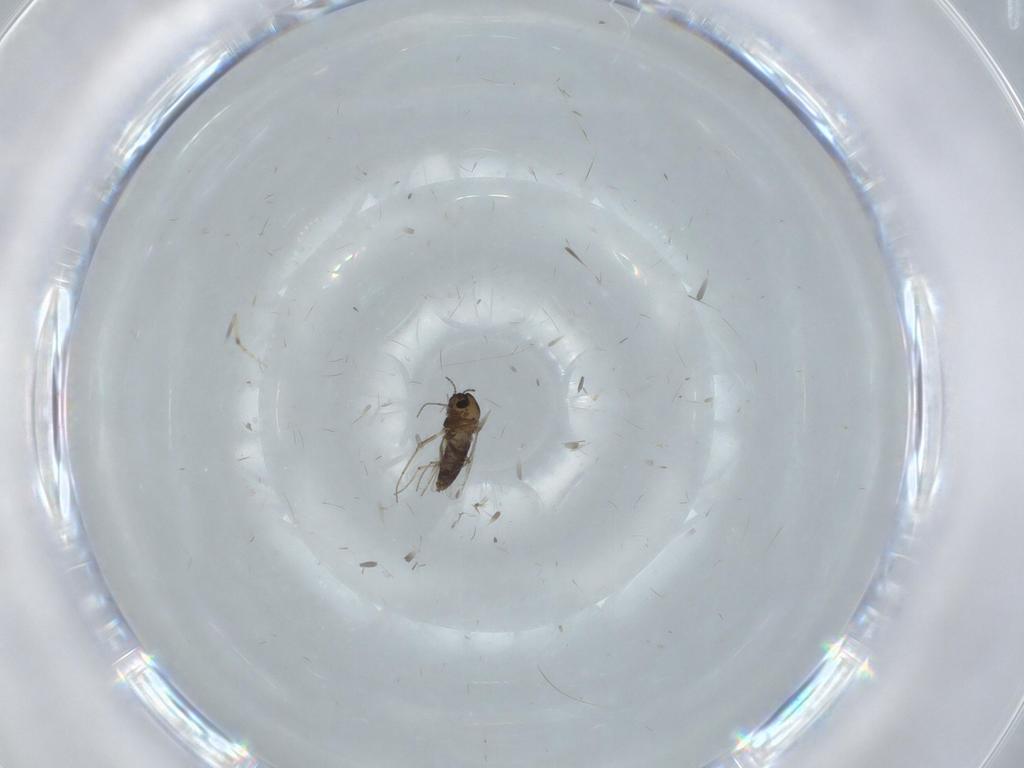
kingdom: Animalia
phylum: Arthropoda
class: Insecta
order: Diptera
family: Chironomidae
